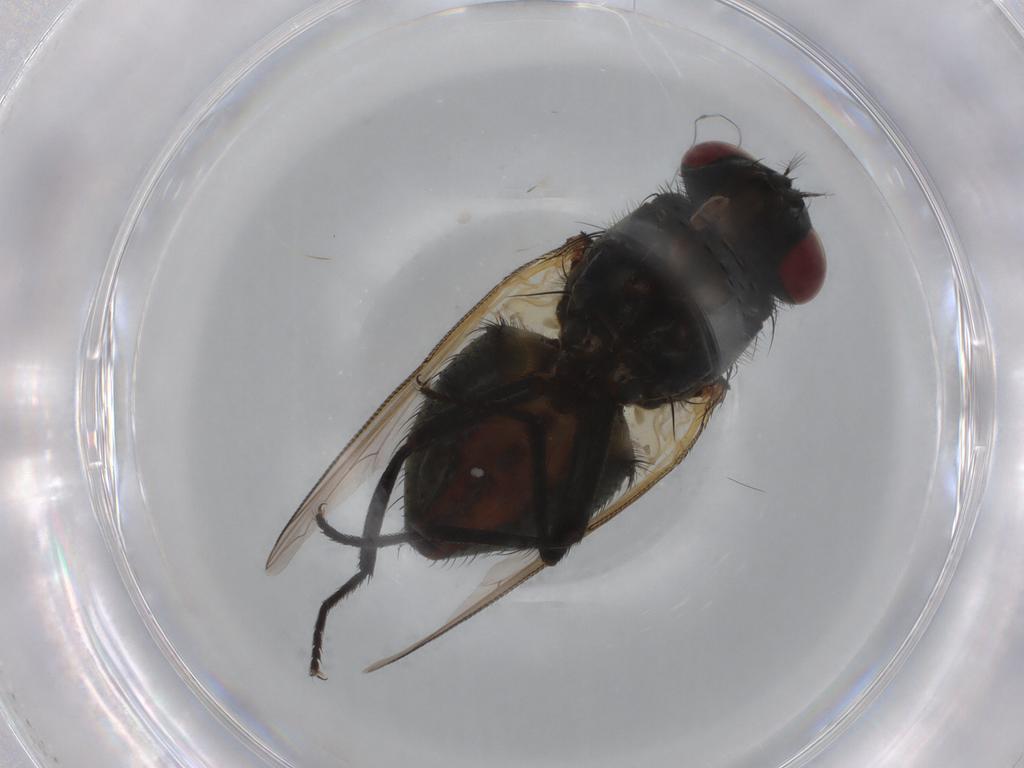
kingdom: Animalia
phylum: Arthropoda
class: Insecta
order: Diptera
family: Muscidae
